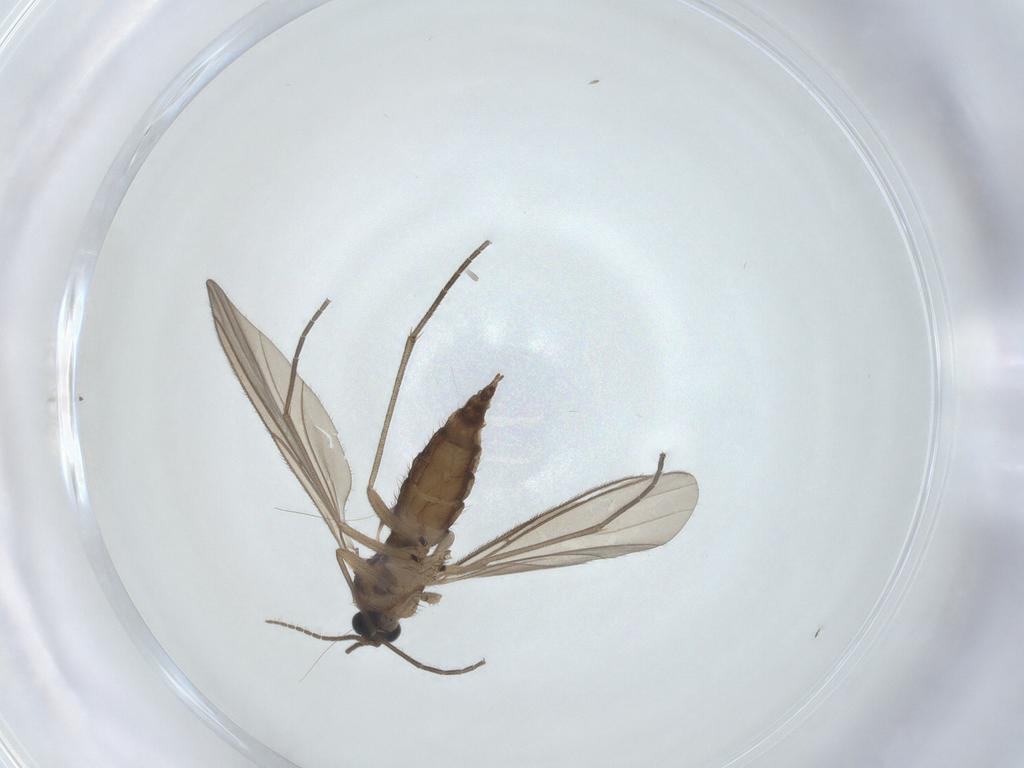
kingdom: Animalia
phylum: Arthropoda
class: Insecta
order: Diptera
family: Sciaridae
